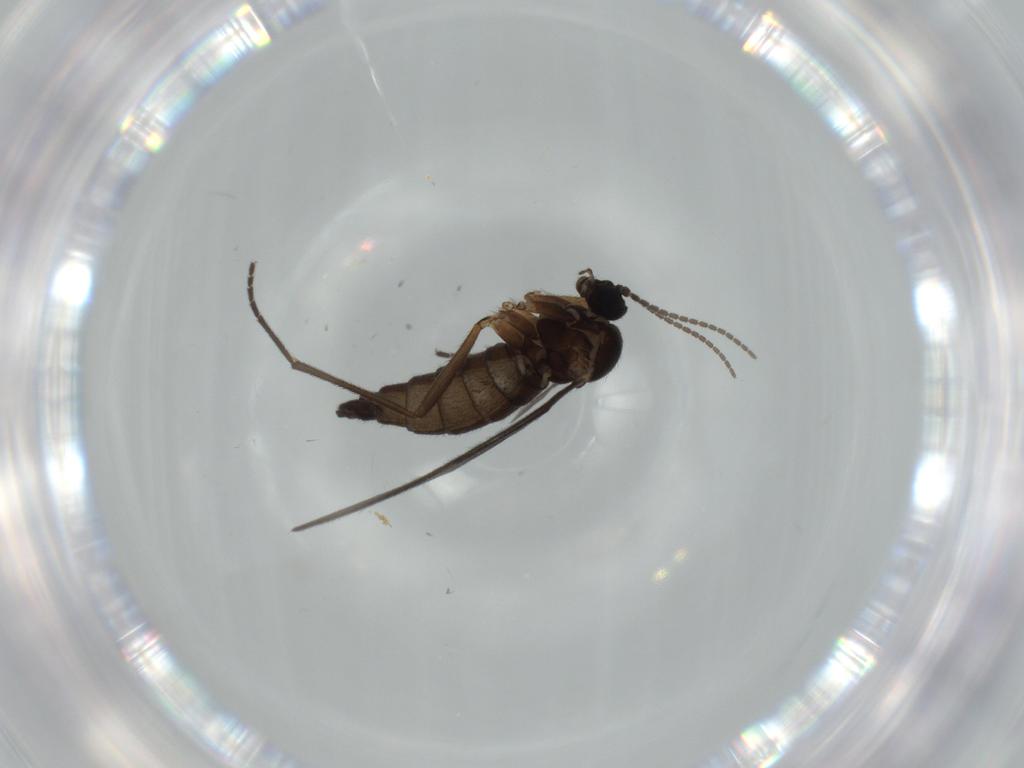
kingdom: Animalia
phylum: Arthropoda
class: Insecta
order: Diptera
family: Sciaridae
